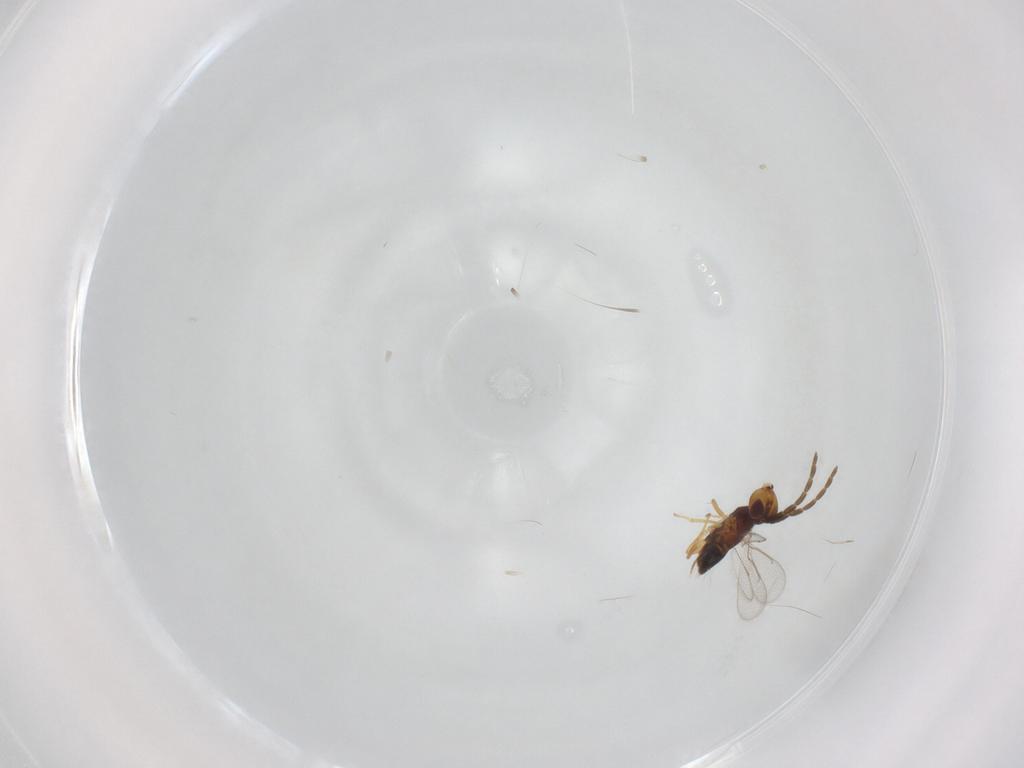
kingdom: Animalia
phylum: Arthropoda
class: Insecta
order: Hymenoptera
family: Aphelinidae
